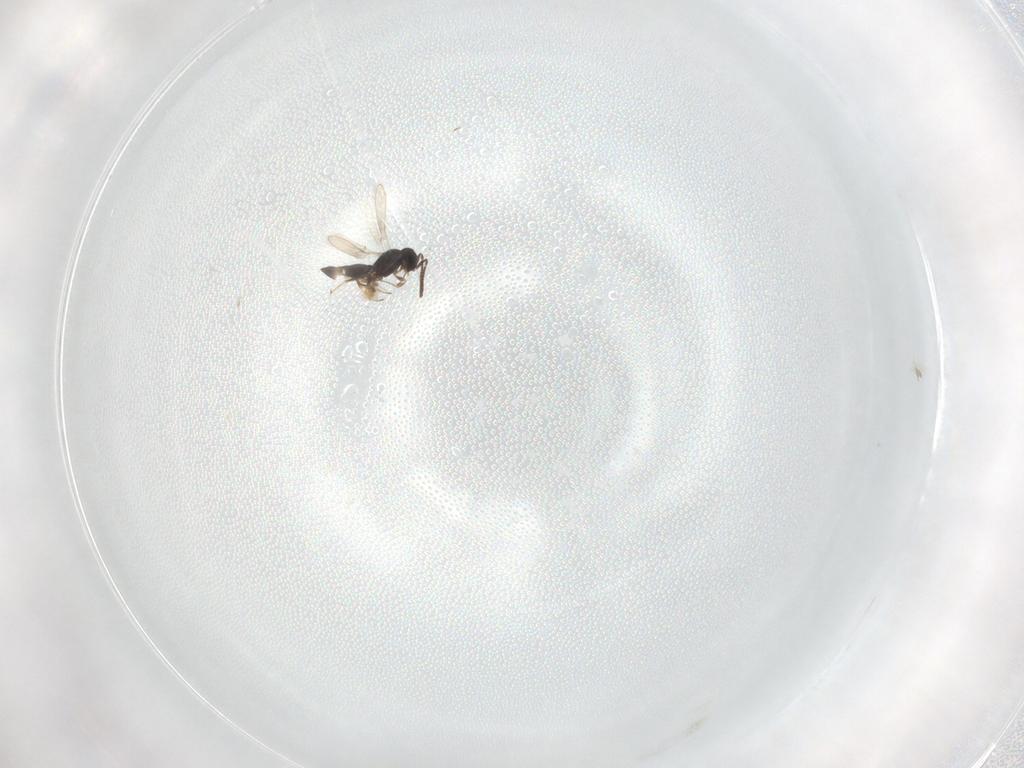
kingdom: Animalia
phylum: Arthropoda
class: Insecta
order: Hymenoptera
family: Scelionidae
